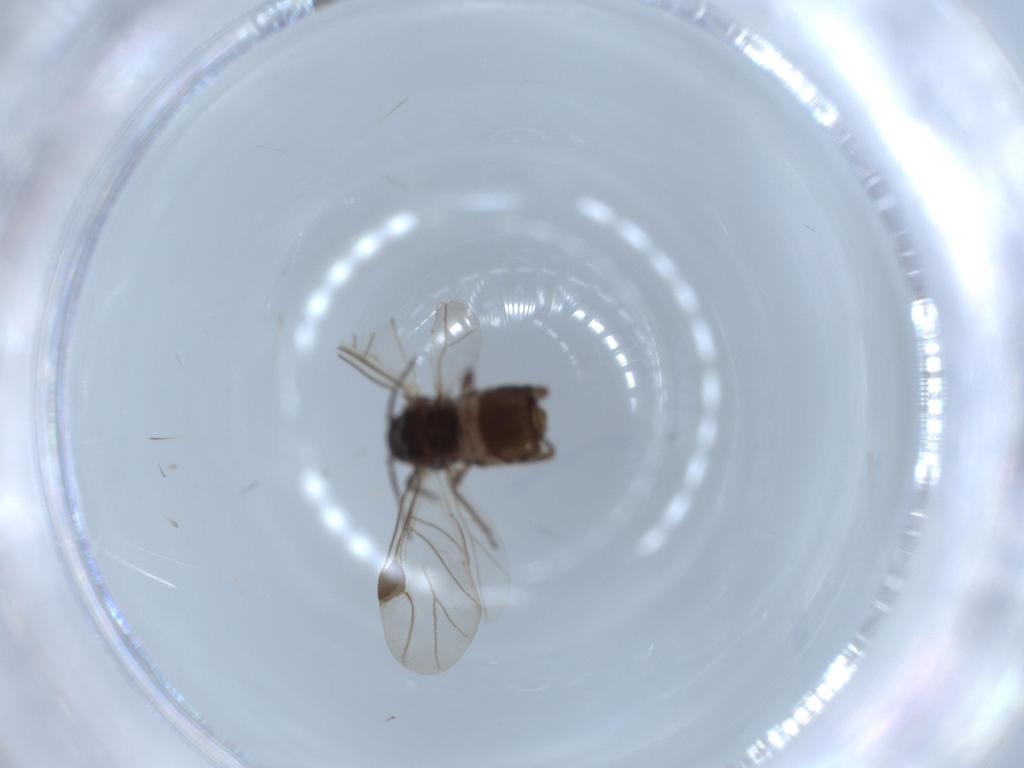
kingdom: Animalia
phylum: Arthropoda
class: Insecta
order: Hemiptera
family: Aphididae
